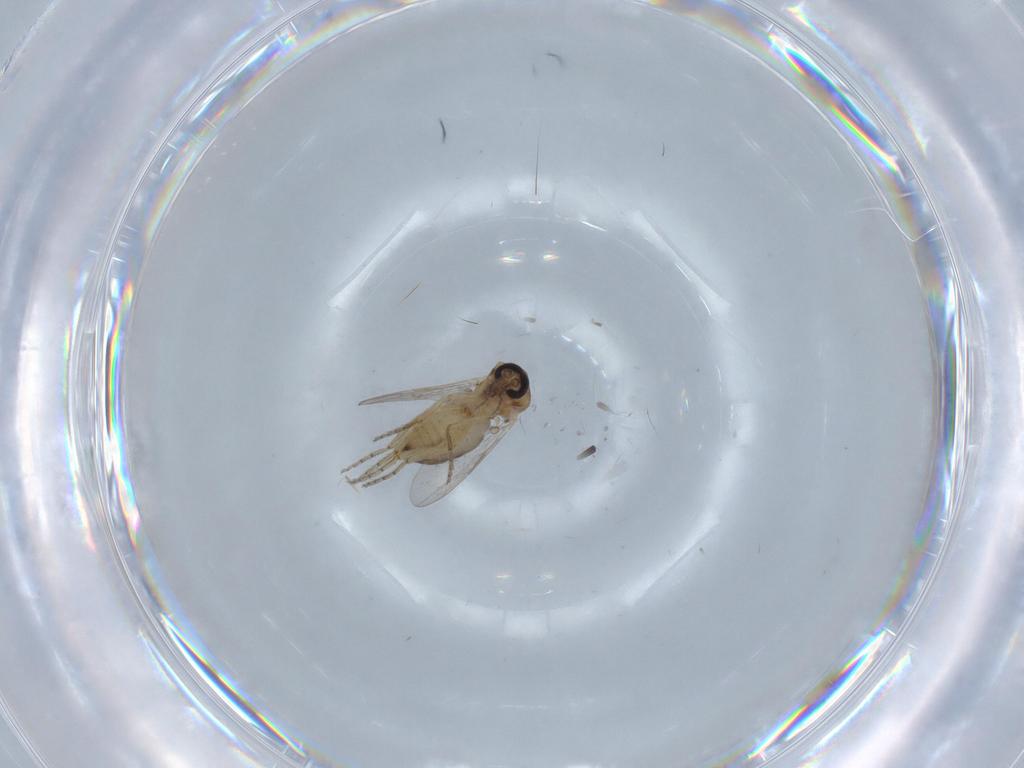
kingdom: Animalia
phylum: Arthropoda
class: Insecta
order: Diptera
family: Ceratopogonidae
